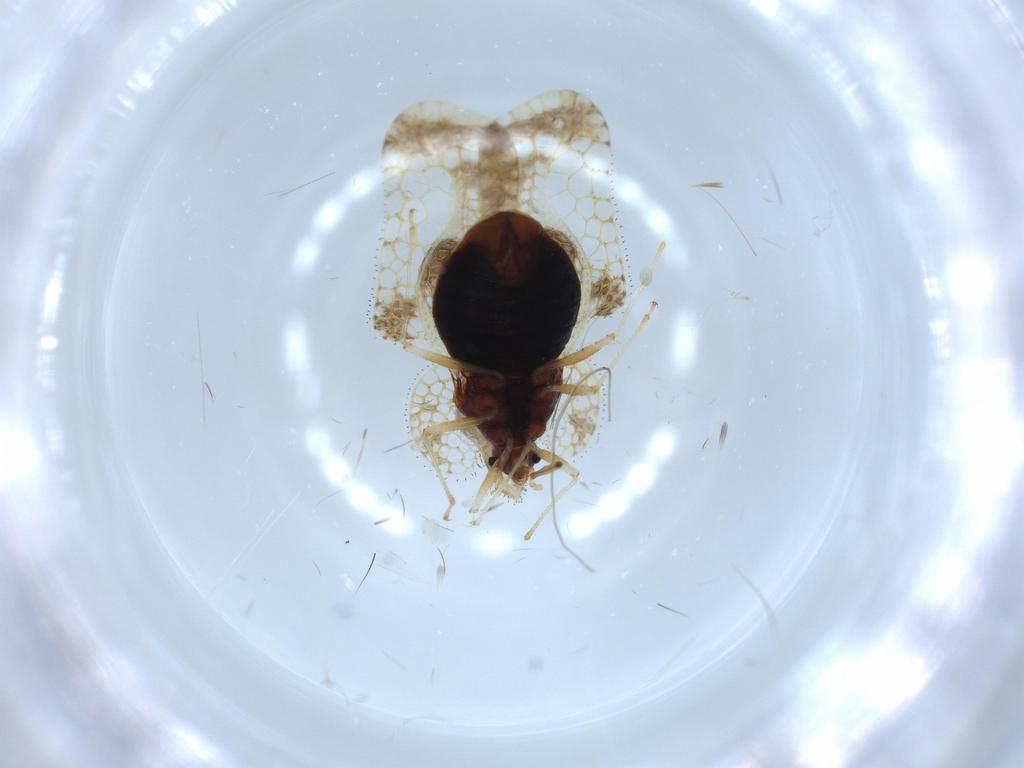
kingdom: Animalia
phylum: Arthropoda
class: Insecta
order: Hemiptera
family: Tingidae
